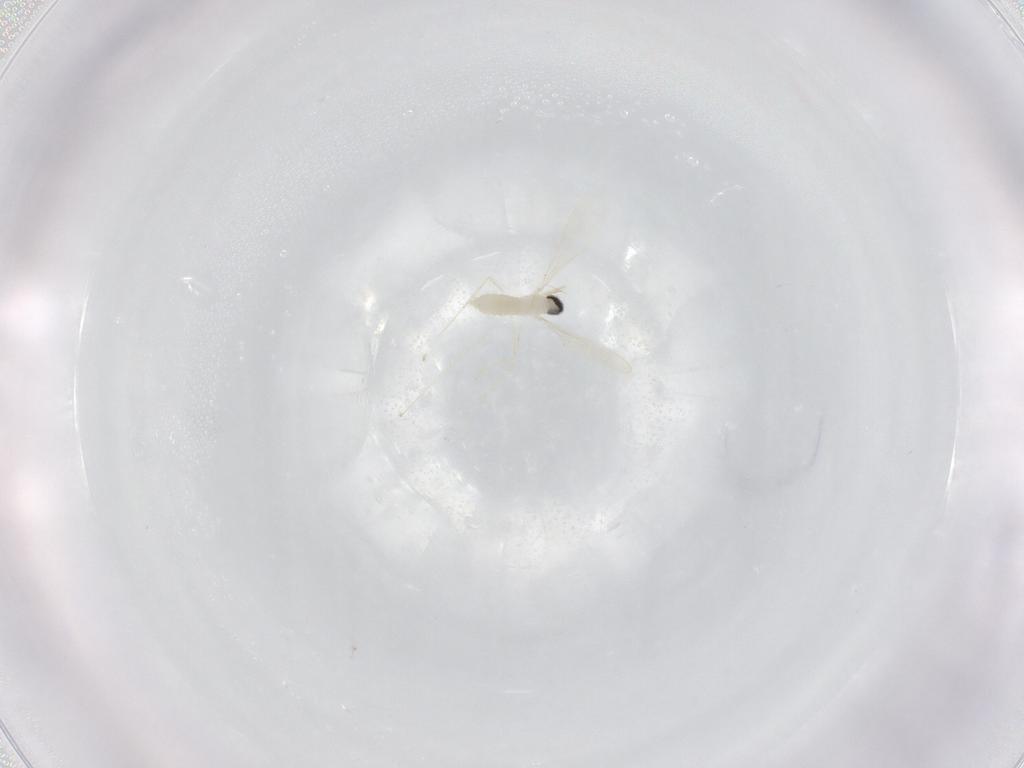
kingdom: Animalia
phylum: Arthropoda
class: Insecta
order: Diptera
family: Cecidomyiidae
